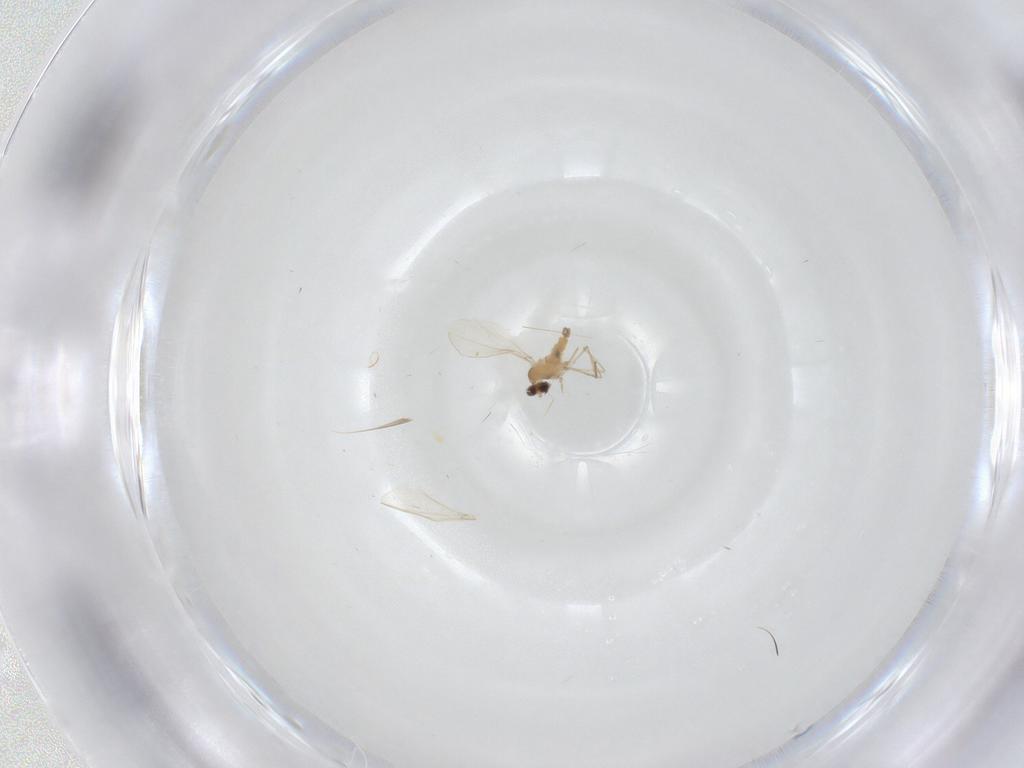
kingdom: Animalia
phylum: Arthropoda
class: Insecta
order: Diptera
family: Cecidomyiidae
